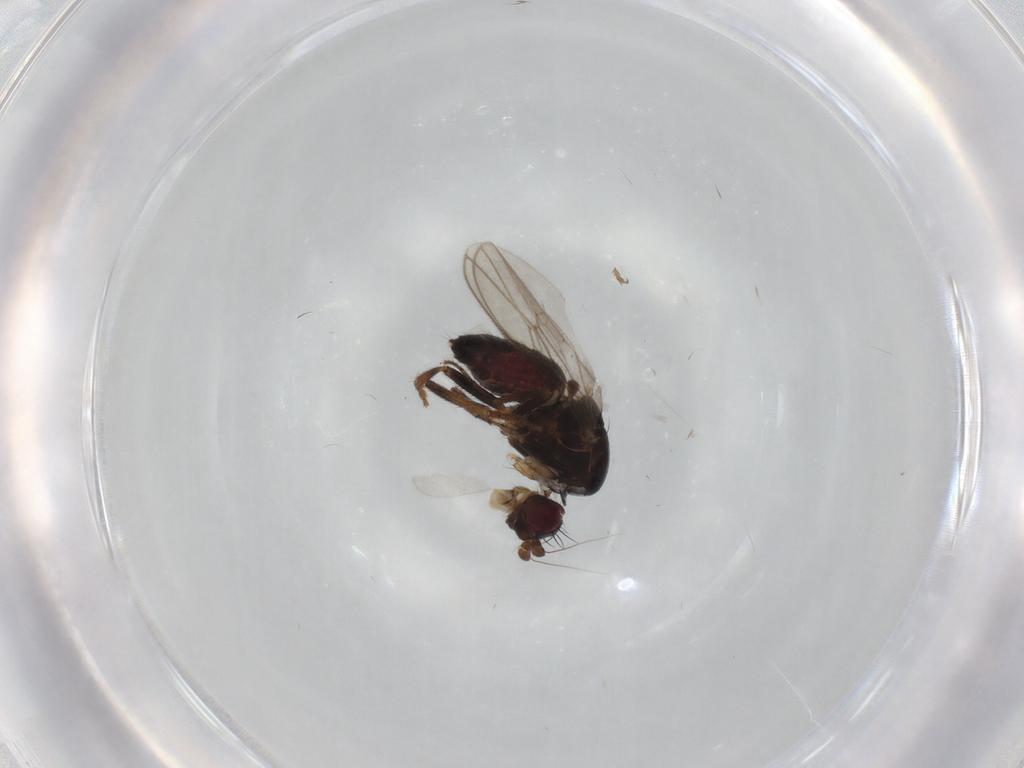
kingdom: Animalia
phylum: Arthropoda
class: Insecta
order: Diptera
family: Sphaeroceridae
